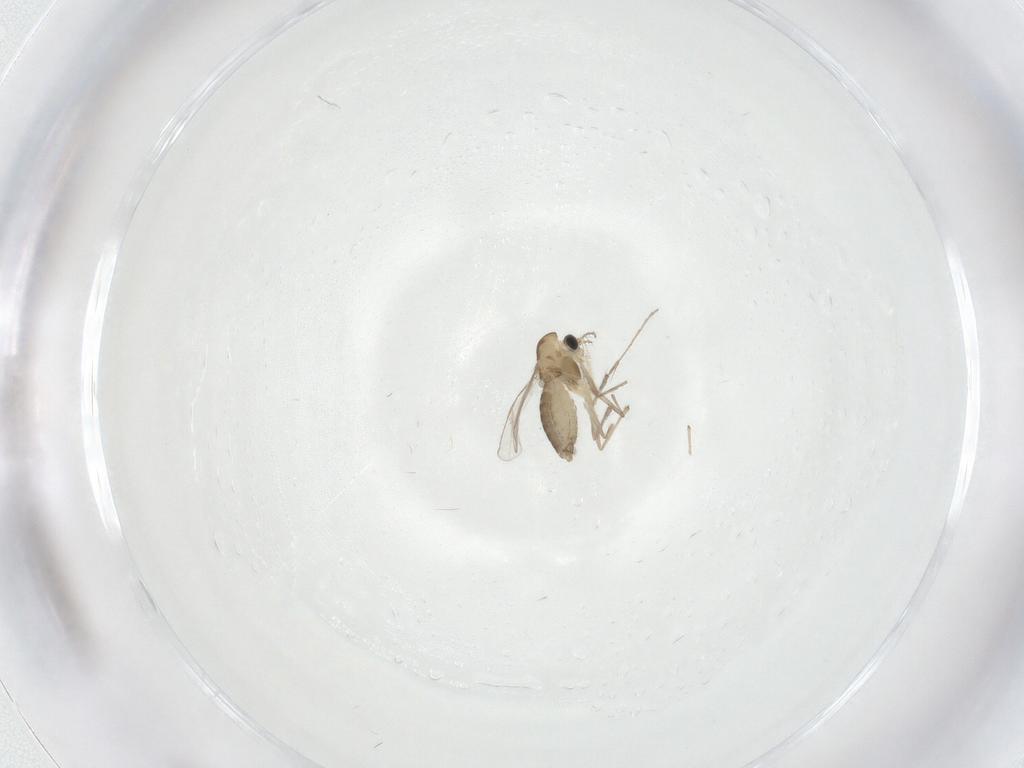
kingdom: Animalia
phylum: Arthropoda
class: Insecta
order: Diptera
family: Chironomidae
